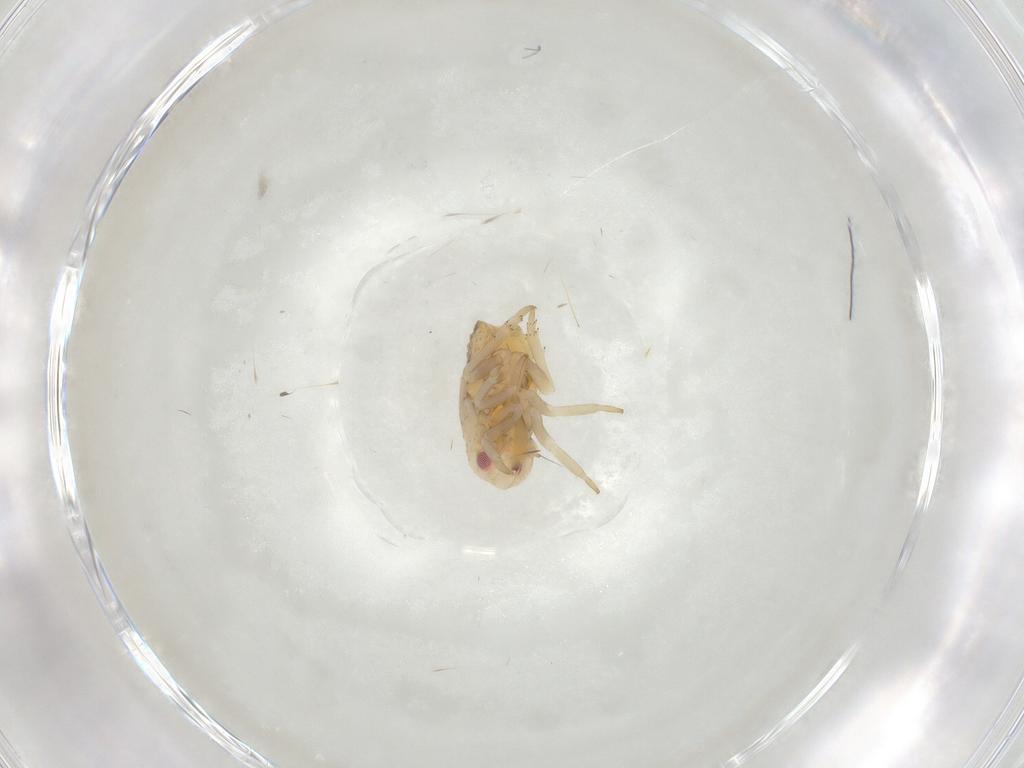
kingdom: Animalia
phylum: Arthropoda
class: Insecta
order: Hemiptera
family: Flatidae
